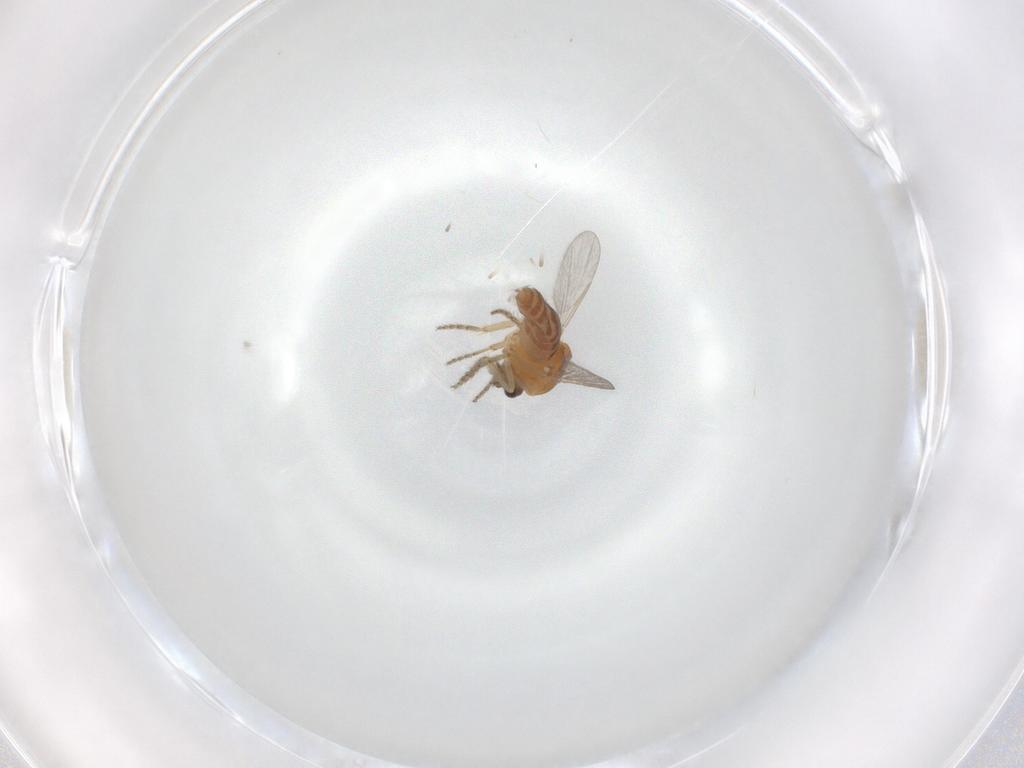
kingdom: Animalia
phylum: Arthropoda
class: Insecta
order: Diptera
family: Ceratopogonidae
